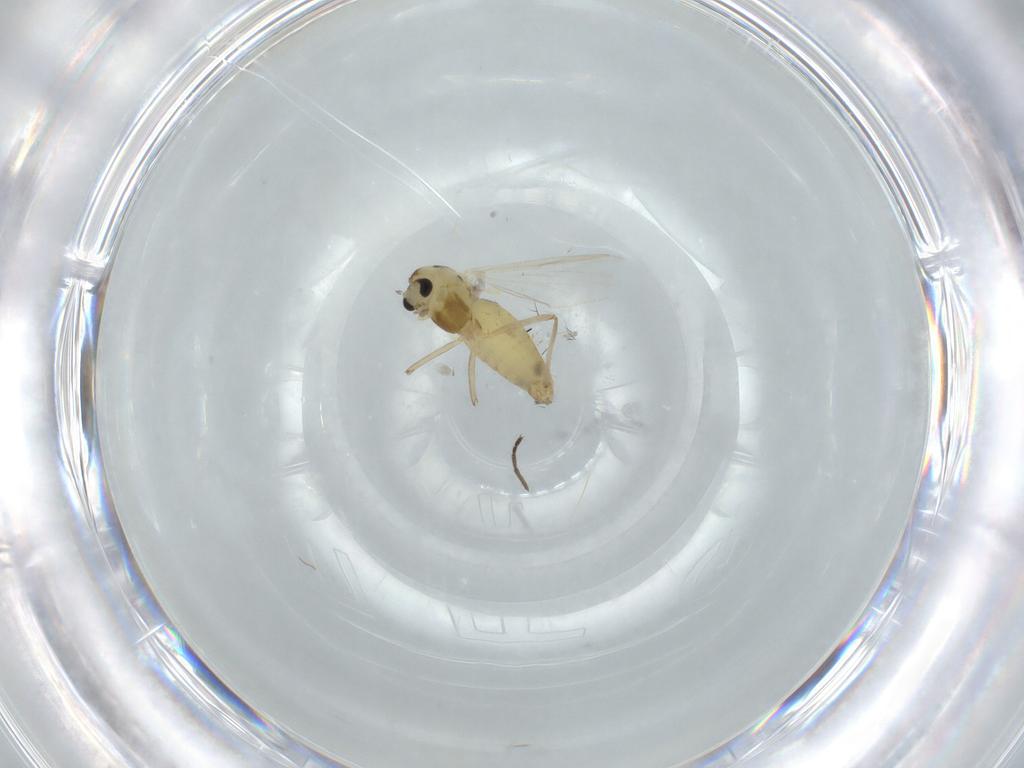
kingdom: Animalia
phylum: Arthropoda
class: Insecta
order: Diptera
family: Chironomidae
